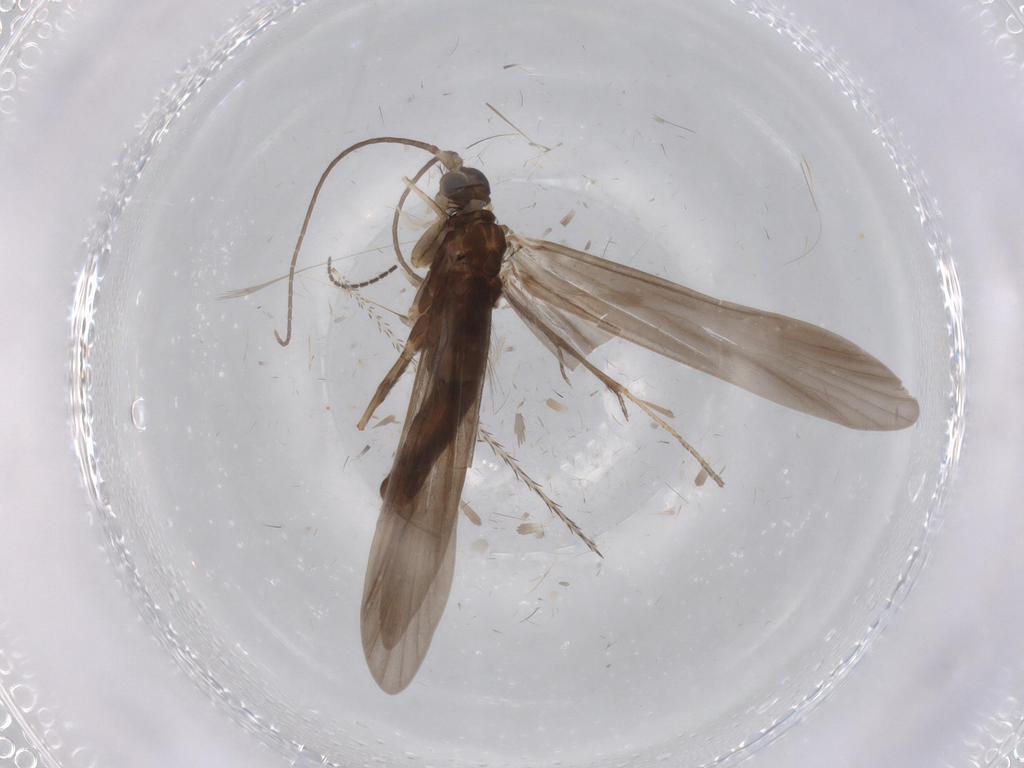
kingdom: Animalia
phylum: Arthropoda
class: Insecta
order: Trichoptera
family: Xiphocentronidae
